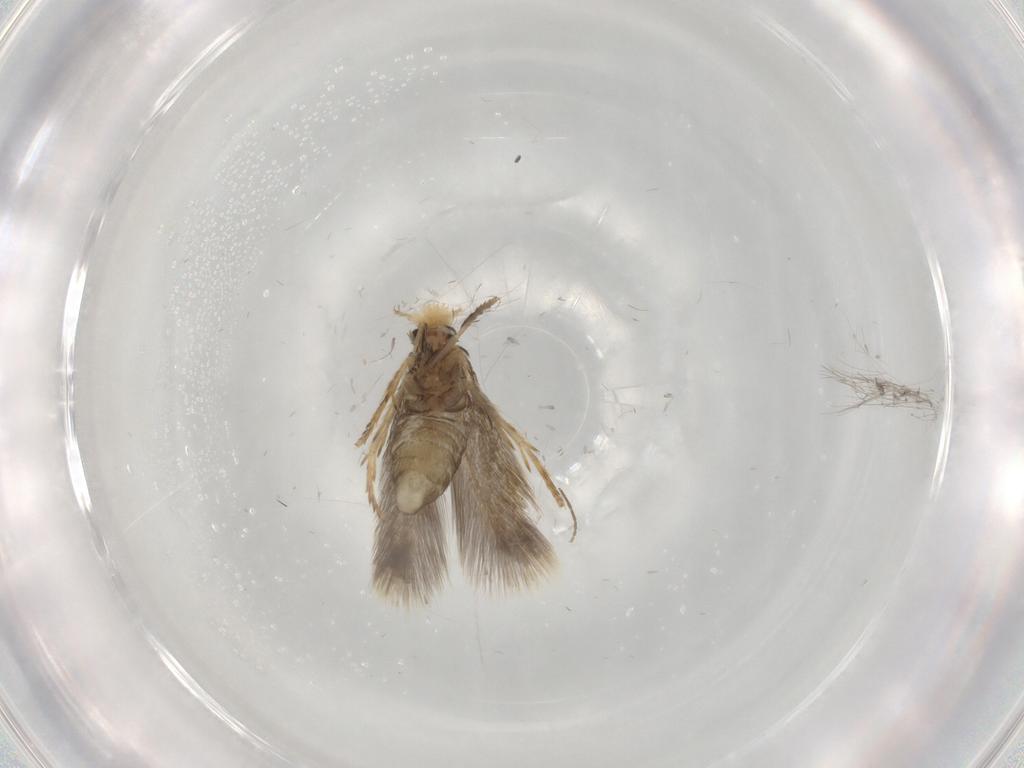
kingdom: Animalia
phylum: Arthropoda
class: Insecta
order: Lepidoptera
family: Nepticulidae
